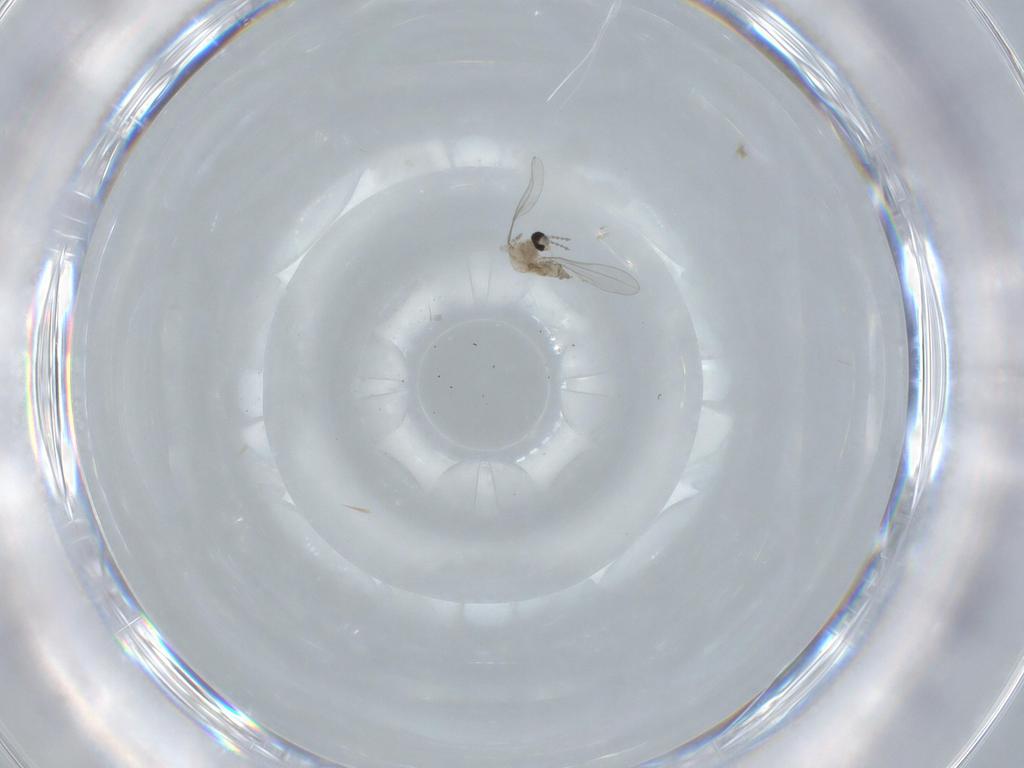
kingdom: Animalia
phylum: Arthropoda
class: Insecta
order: Diptera
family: Cecidomyiidae
